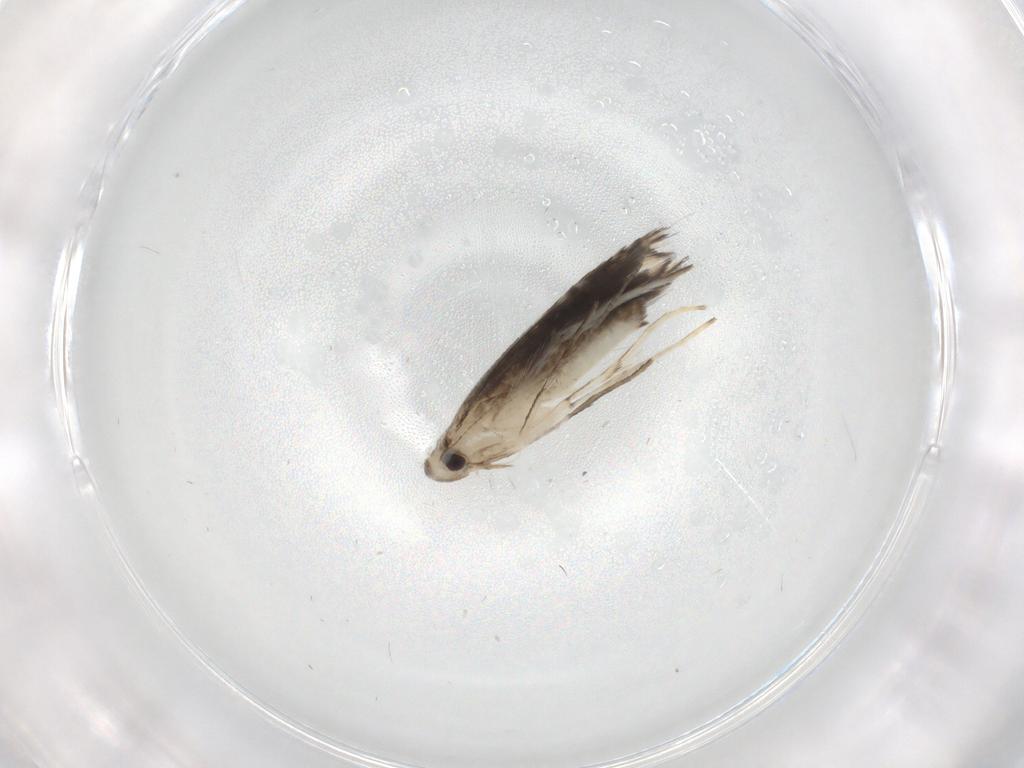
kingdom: Animalia
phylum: Arthropoda
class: Insecta
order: Lepidoptera
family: Gracillariidae
